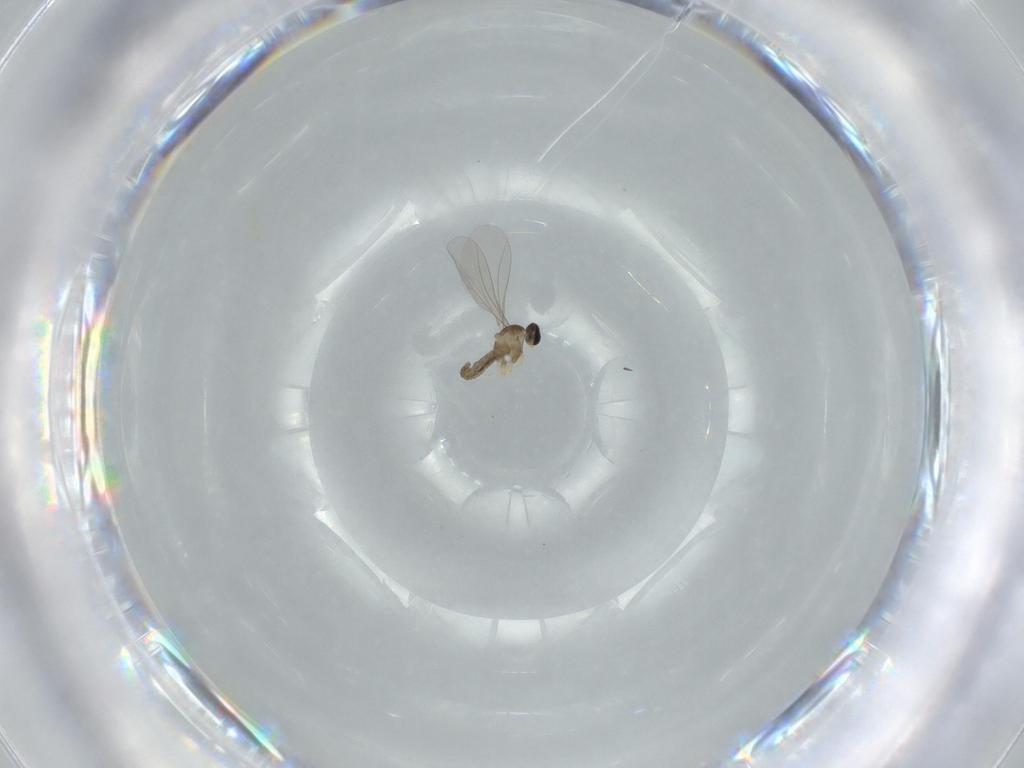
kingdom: Animalia
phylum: Arthropoda
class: Insecta
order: Diptera
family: Cecidomyiidae
